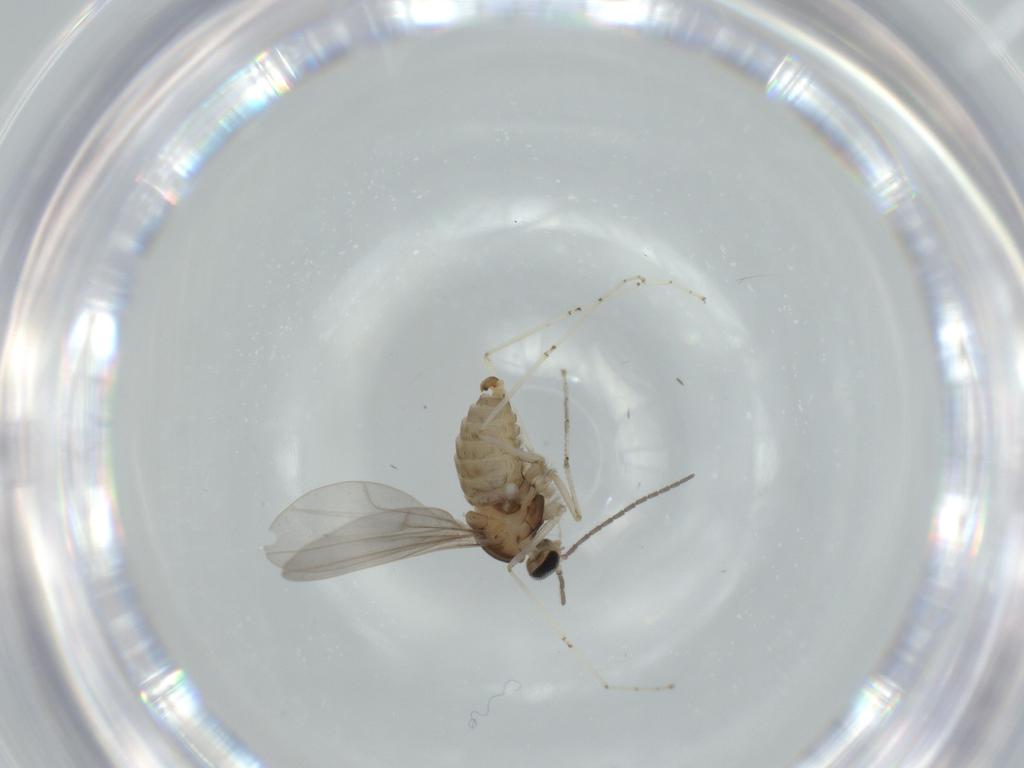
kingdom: Animalia
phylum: Arthropoda
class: Insecta
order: Diptera
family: Cecidomyiidae
